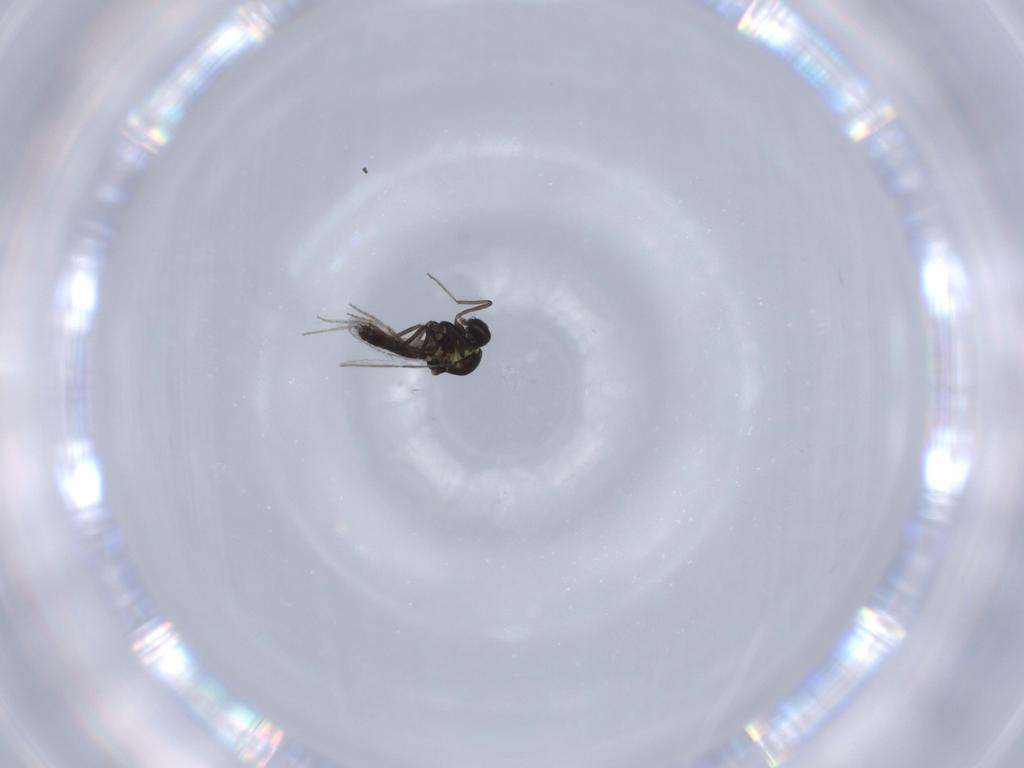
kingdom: Animalia
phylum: Arthropoda
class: Insecta
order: Diptera
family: Ceratopogonidae
